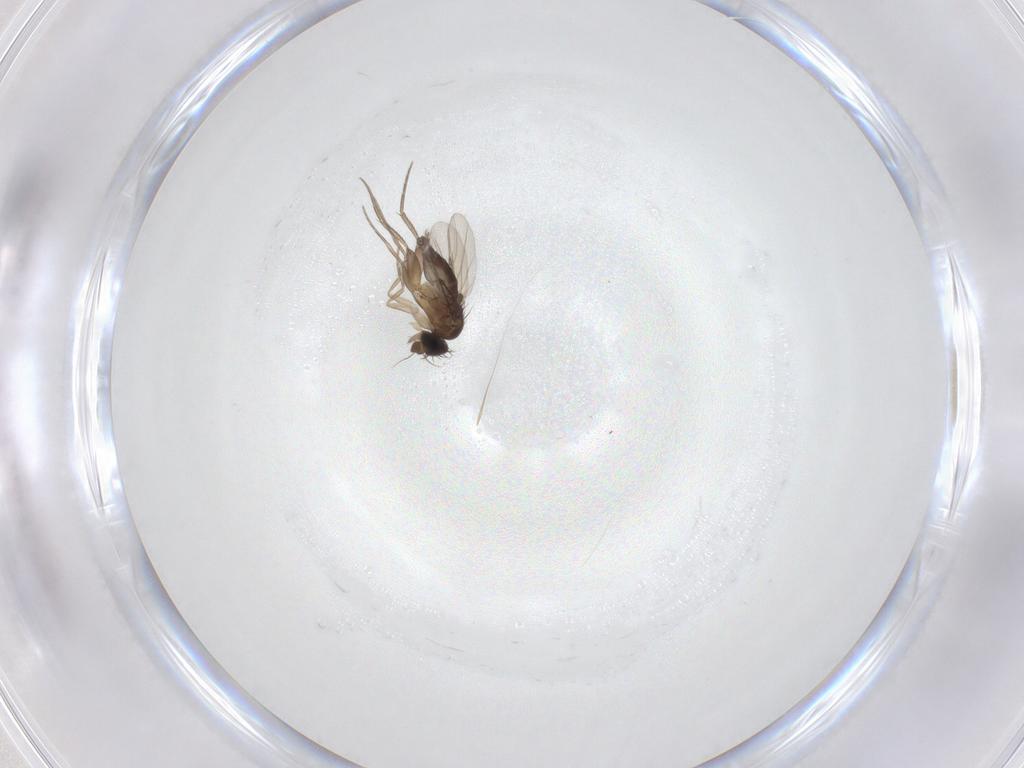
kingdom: Animalia
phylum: Arthropoda
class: Insecta
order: Diptera
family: Phoridae
